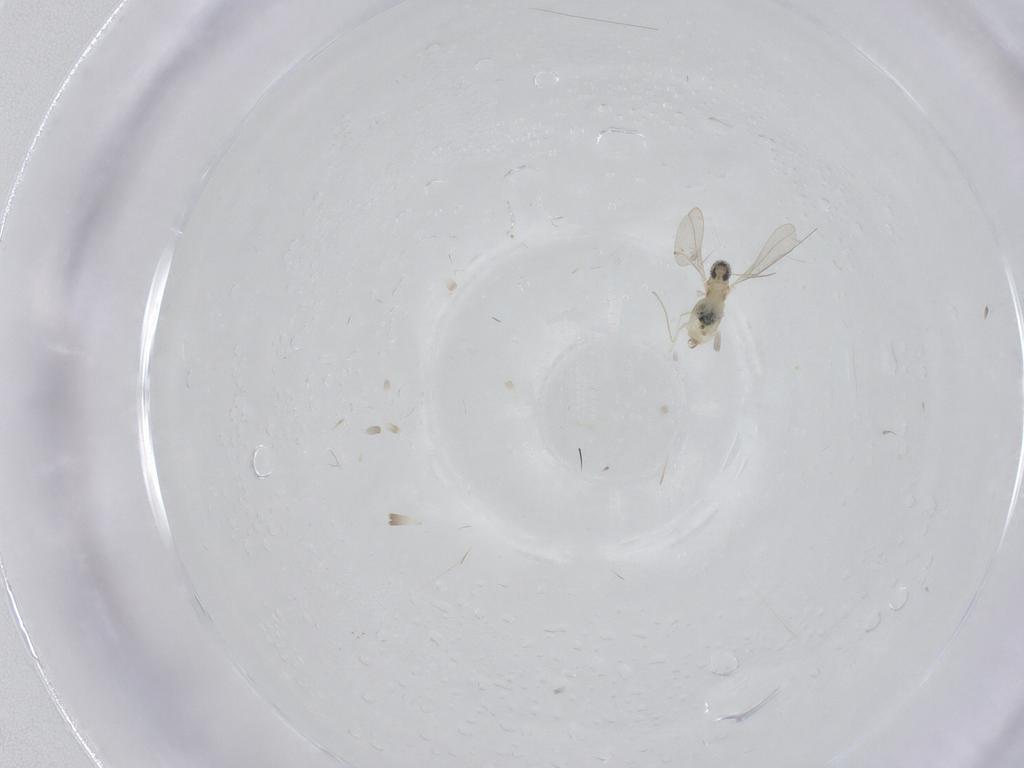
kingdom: Animalia
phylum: Arthropoda
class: Insecta
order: Diptera
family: Cecidomyiidae
